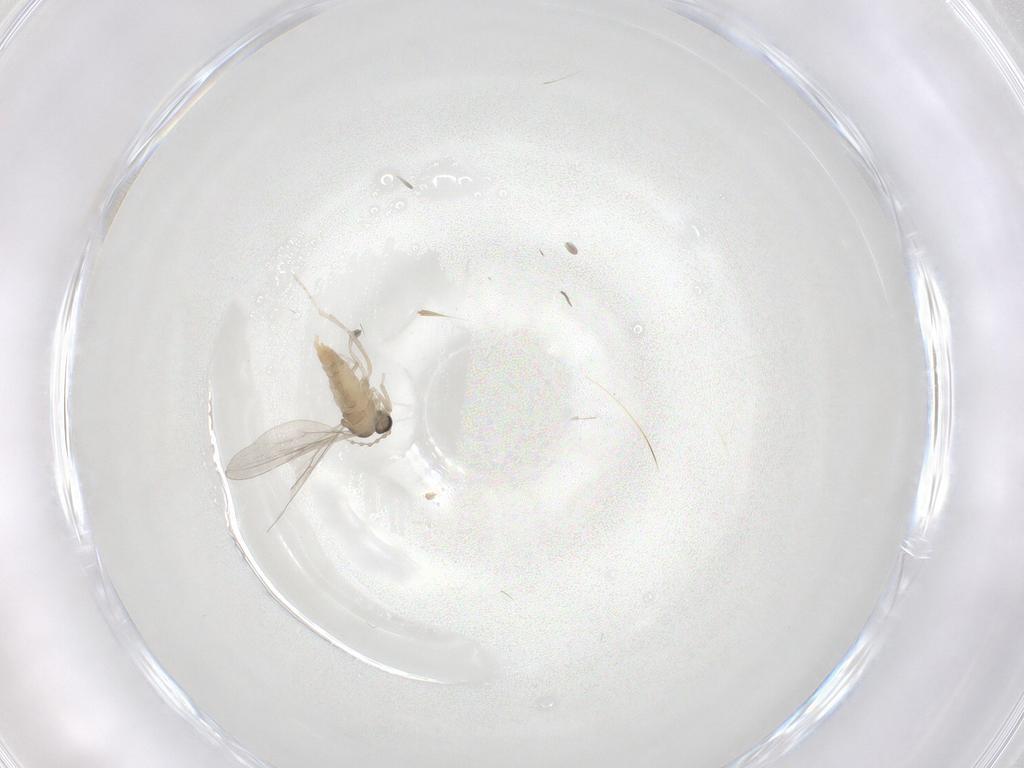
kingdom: Animalia
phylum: Arthropoda
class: Insecta
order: Diptera
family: Cecidomyiidae
